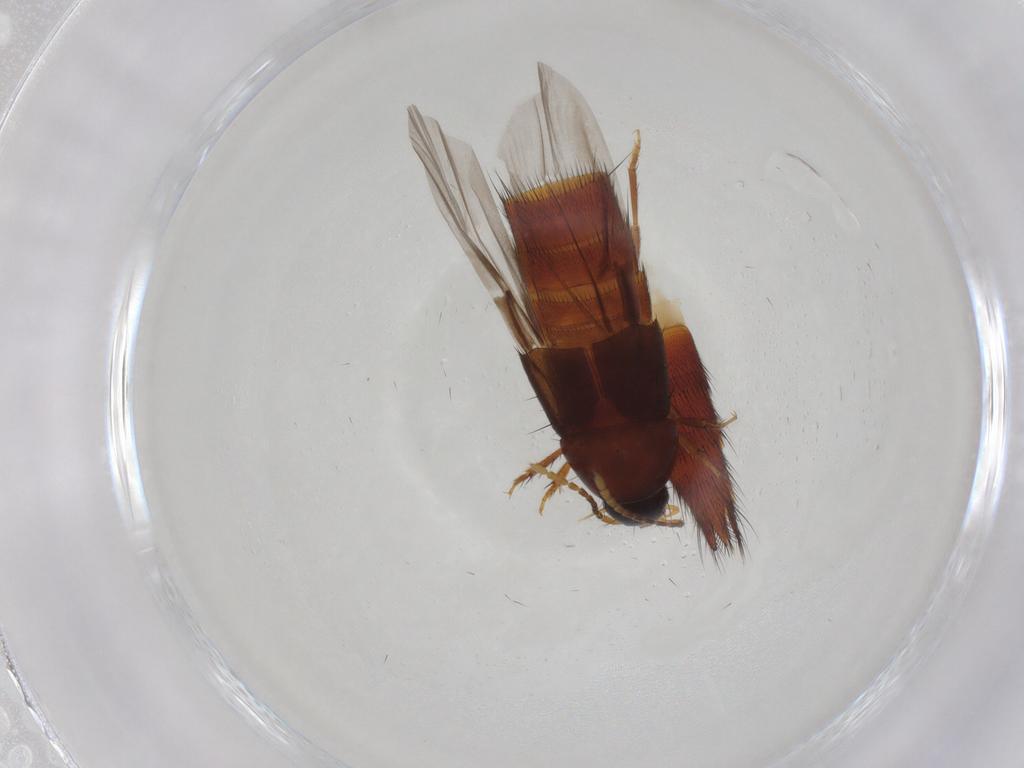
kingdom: Animalia
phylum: Arthropoda
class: Insecta
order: Coleoptera
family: Staphylinidae
